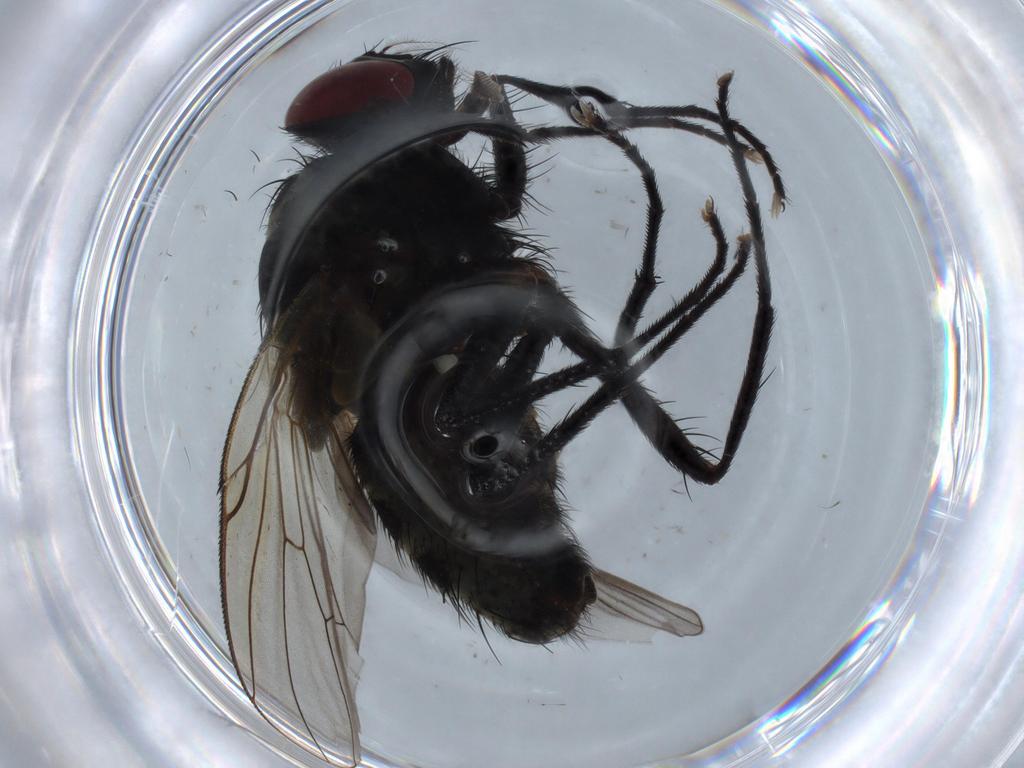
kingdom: Animalia
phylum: Arthropoda
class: Insecta
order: Diptera
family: Muscidae
